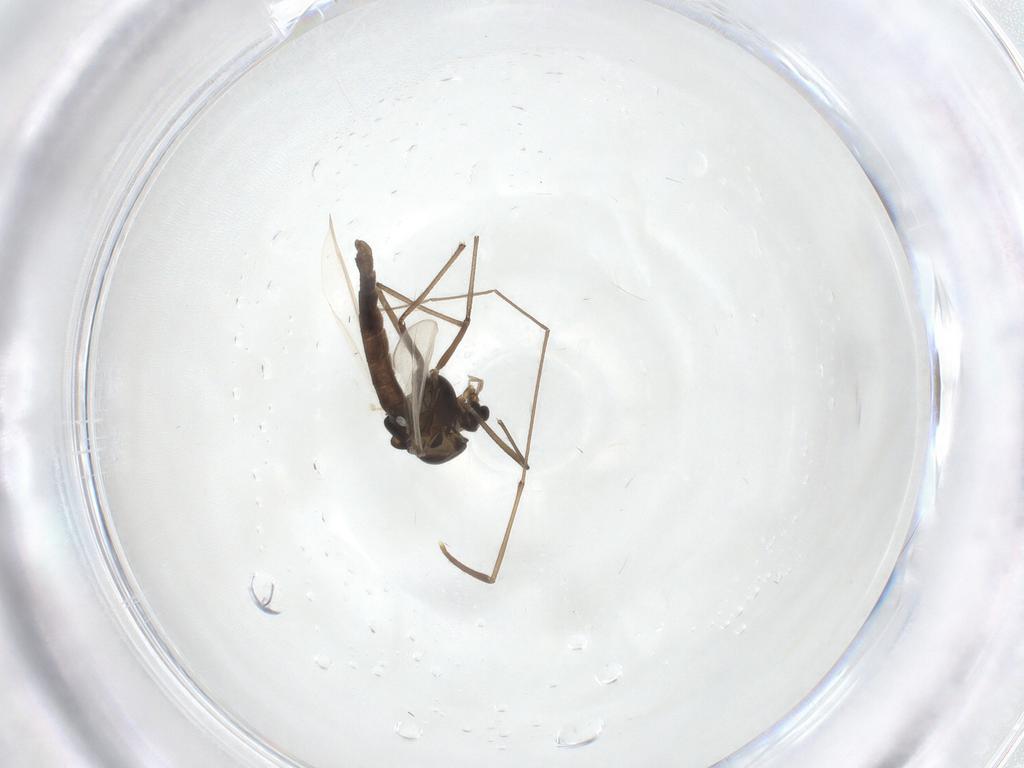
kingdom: Animalia
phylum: Arthropoda
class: Insecta
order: Diptera
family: Chironomidae
